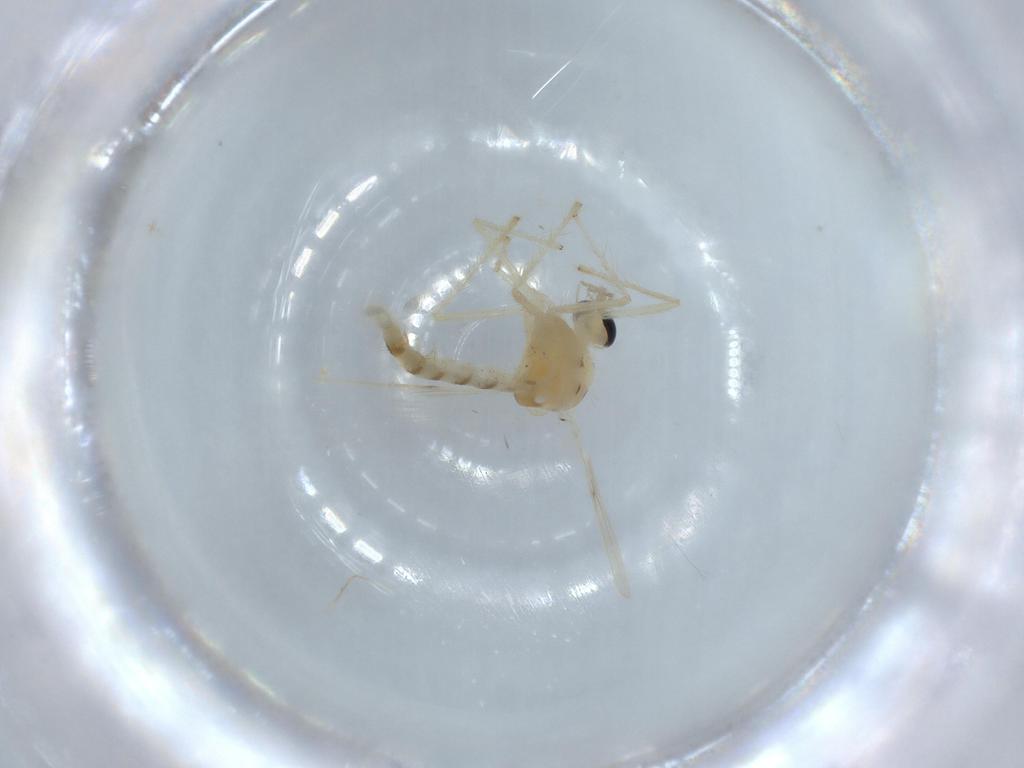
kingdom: Animalia
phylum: Arthropoda
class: Insecta
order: Diptera
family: Chironomidae
